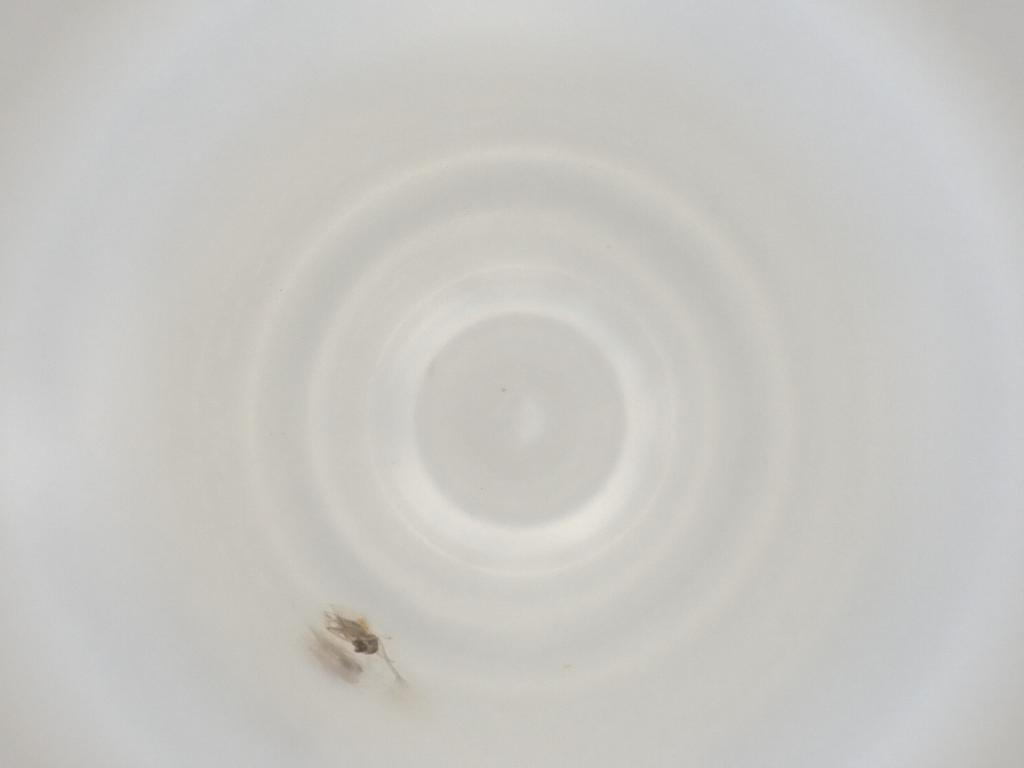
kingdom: Animalia
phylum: Arthropoda
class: Insecta
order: Diptera
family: Cecidomyiidae
